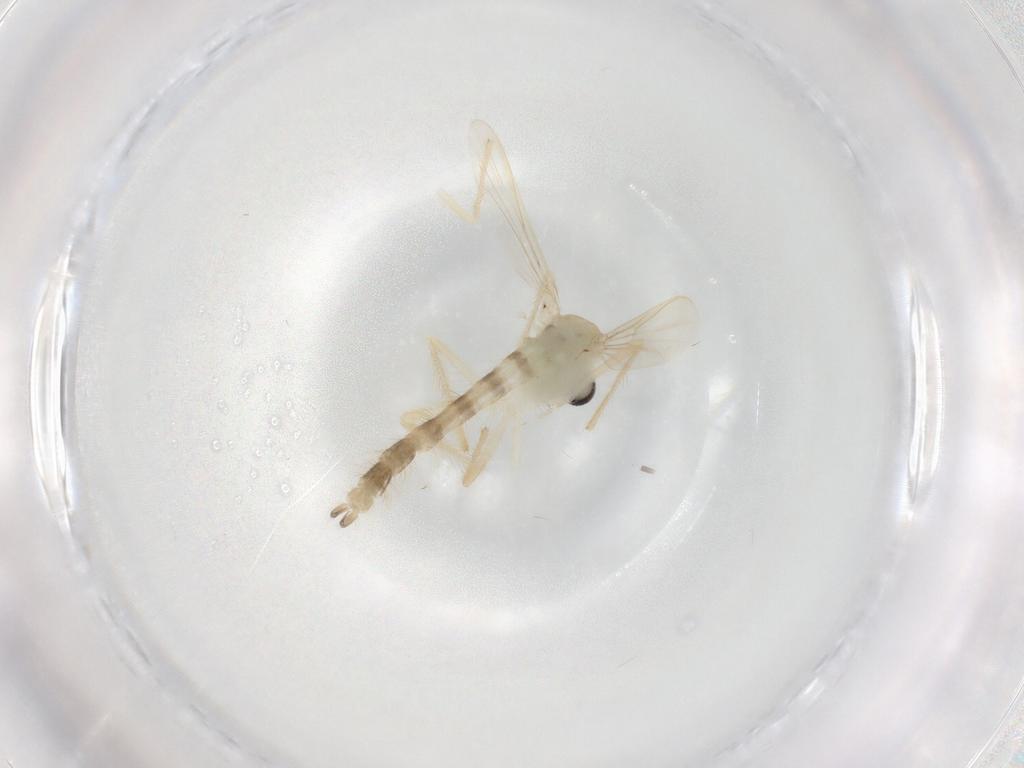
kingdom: Animalia
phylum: Arthropoda
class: Insecta
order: Diptera
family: Chironomidae
